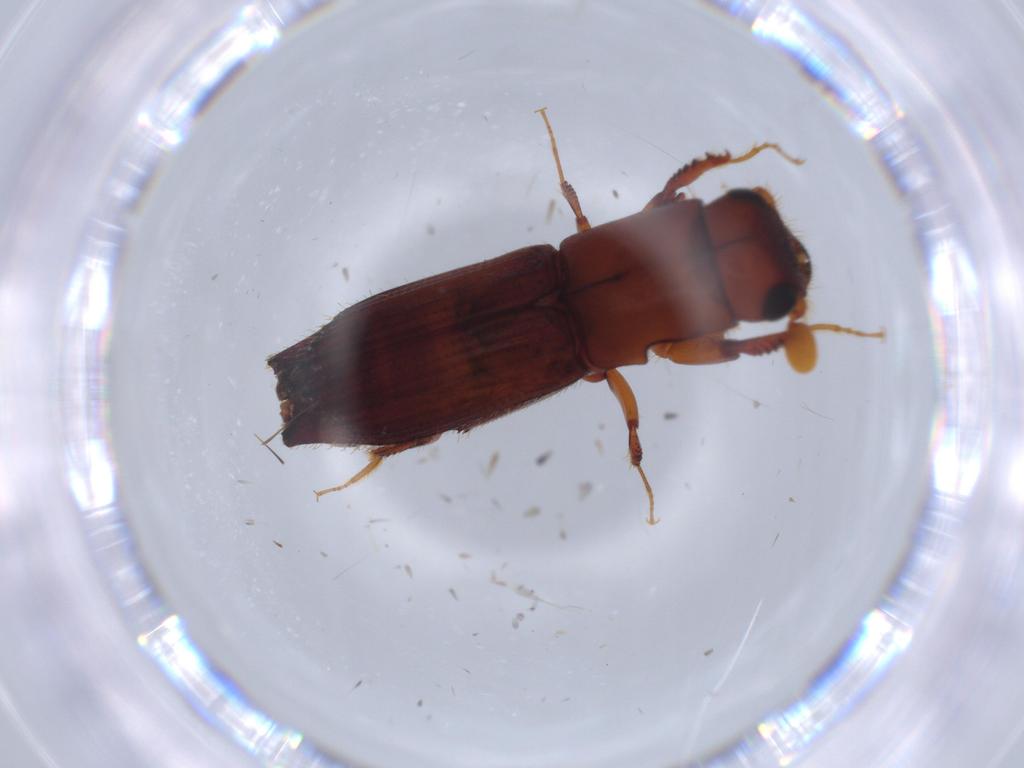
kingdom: Animalia
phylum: Arthropoda
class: Insecta
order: Coleoptera
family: Curculionidae
